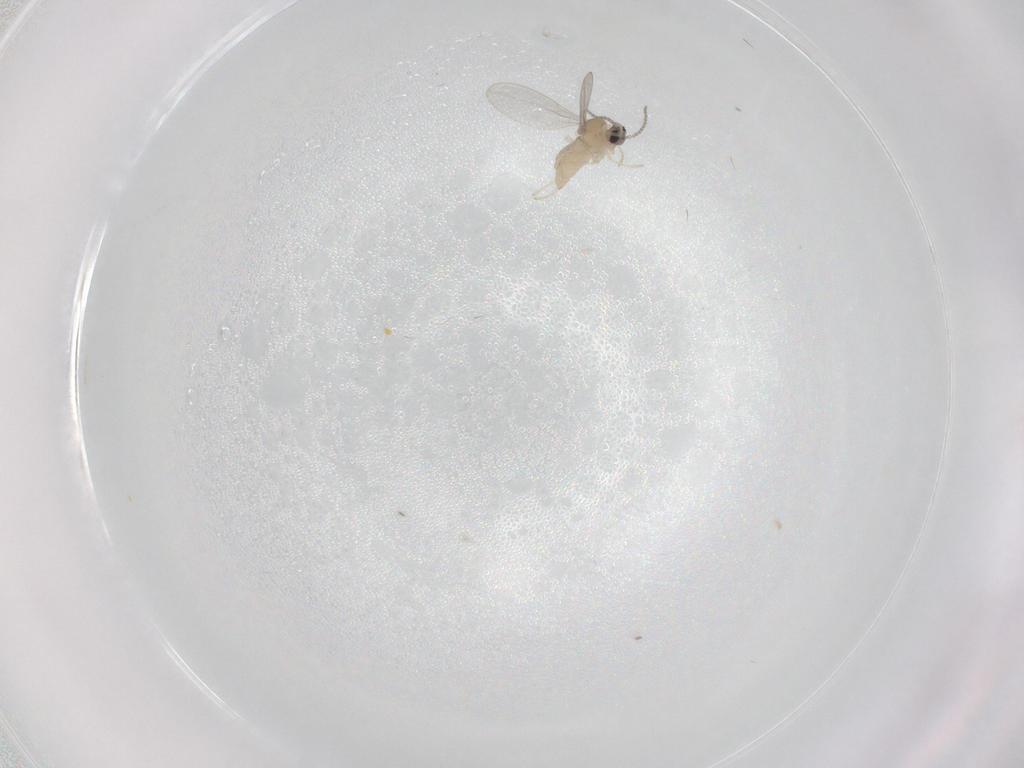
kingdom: Animalia
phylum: Arthropoda
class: Insecta
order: Diptera
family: Cecidomyiidae
